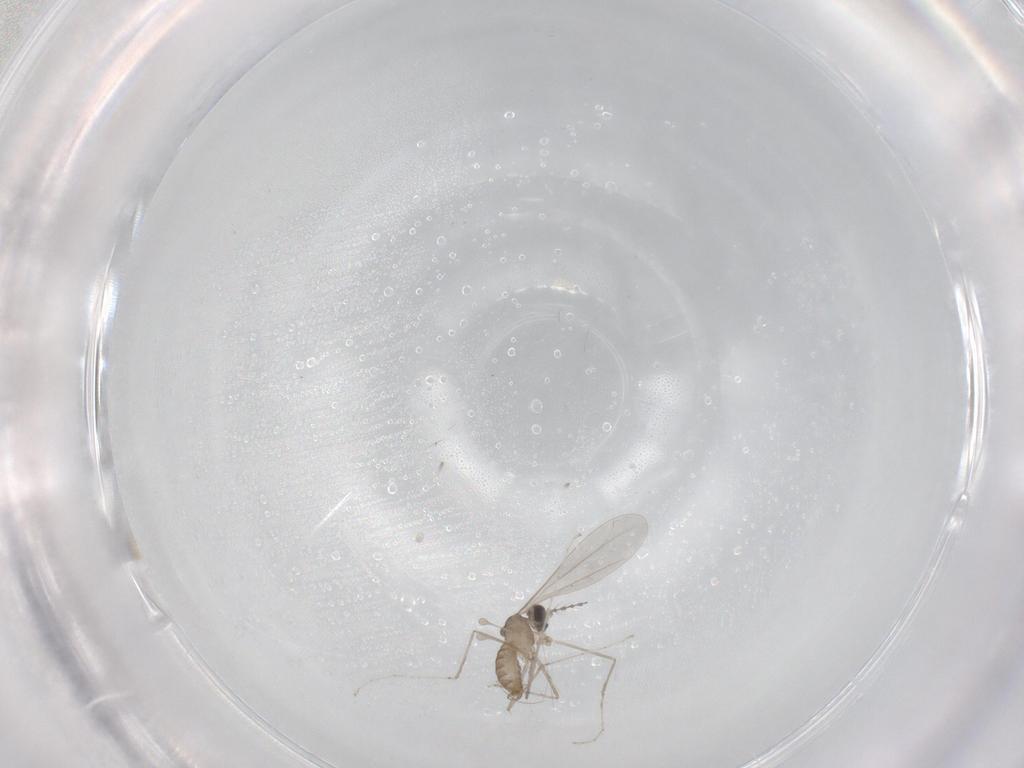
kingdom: Animalia
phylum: Arthropoda
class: Insecta
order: Diptera
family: Cecidomyiidae
